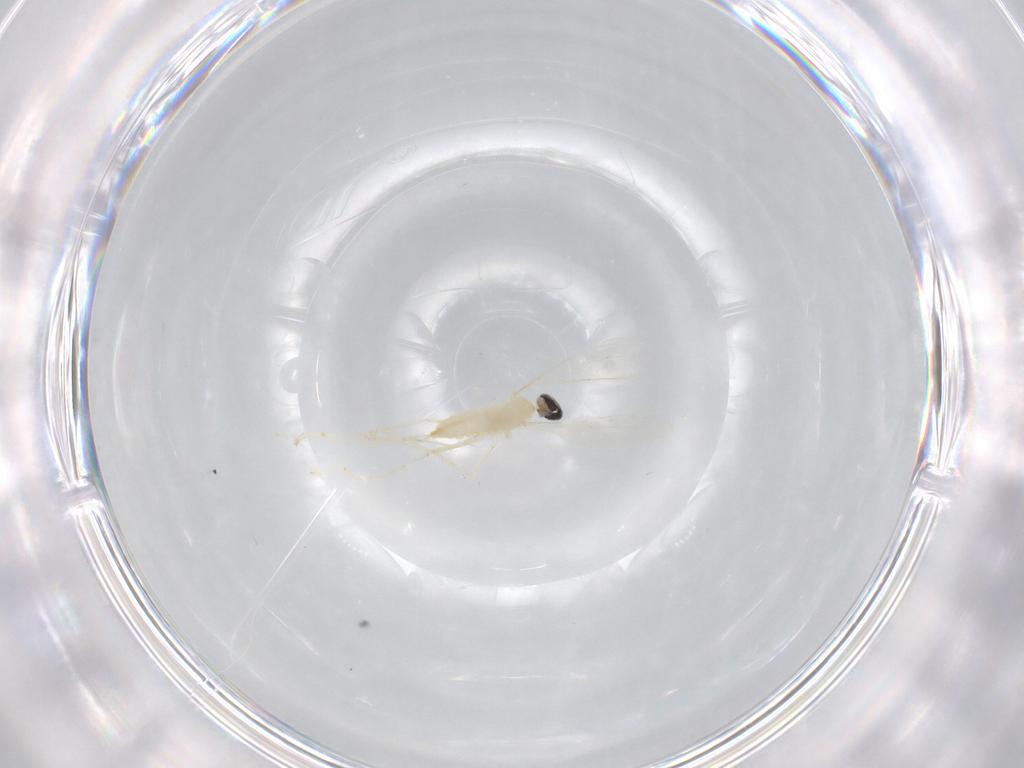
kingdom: Animalia
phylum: Arthropoda
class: Insecta
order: Diptera
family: Cecidomyiidae
